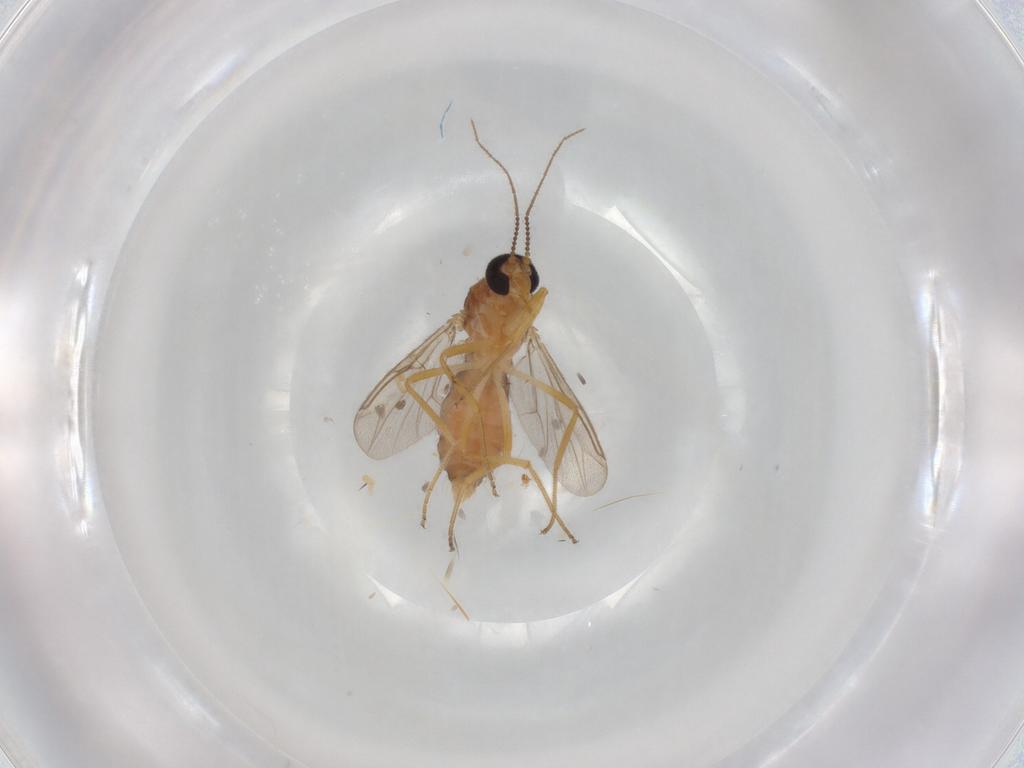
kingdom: Animalia
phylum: Arthropoda
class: Insecta
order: Diptera
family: Ceratopogonidae
